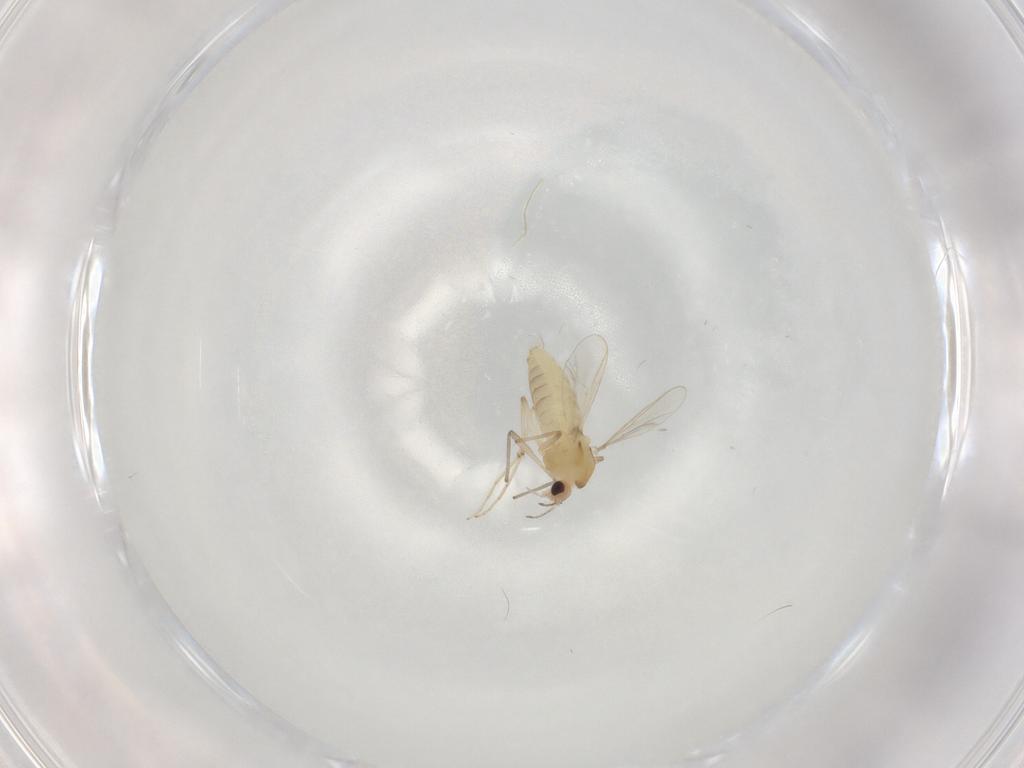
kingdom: Animalia
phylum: Arthropoda
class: Insecta
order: Diptera
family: Chironomidae
